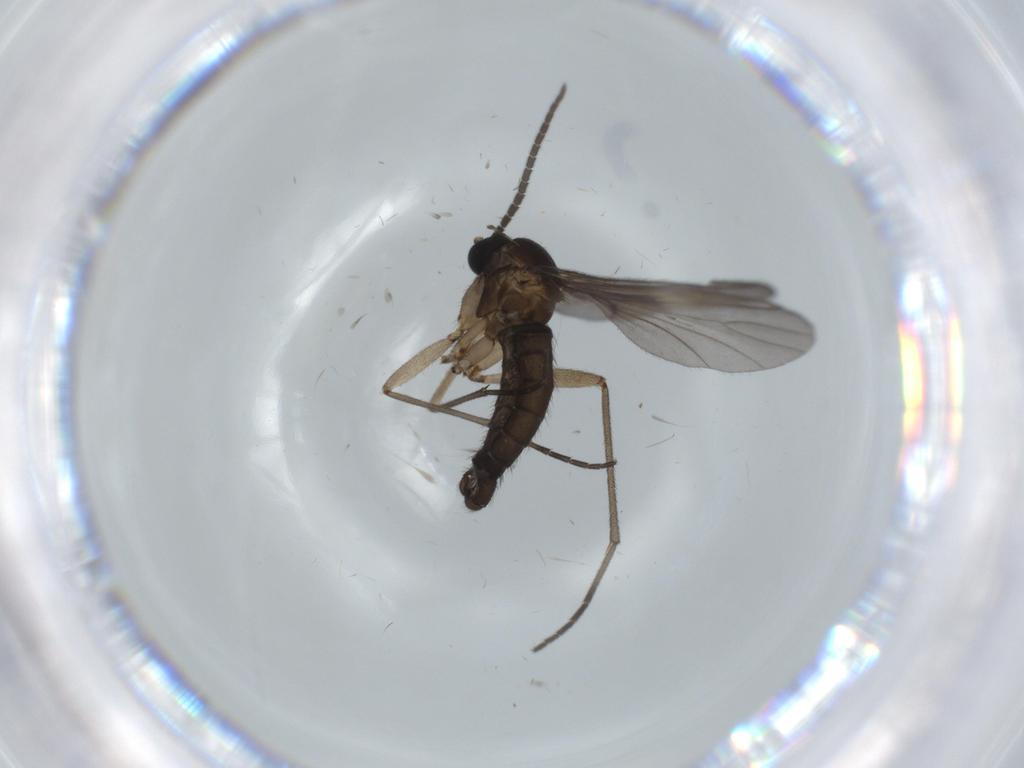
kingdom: Animalia
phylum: Arthropoda
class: Insecta
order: Diptera
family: Sciaridae
